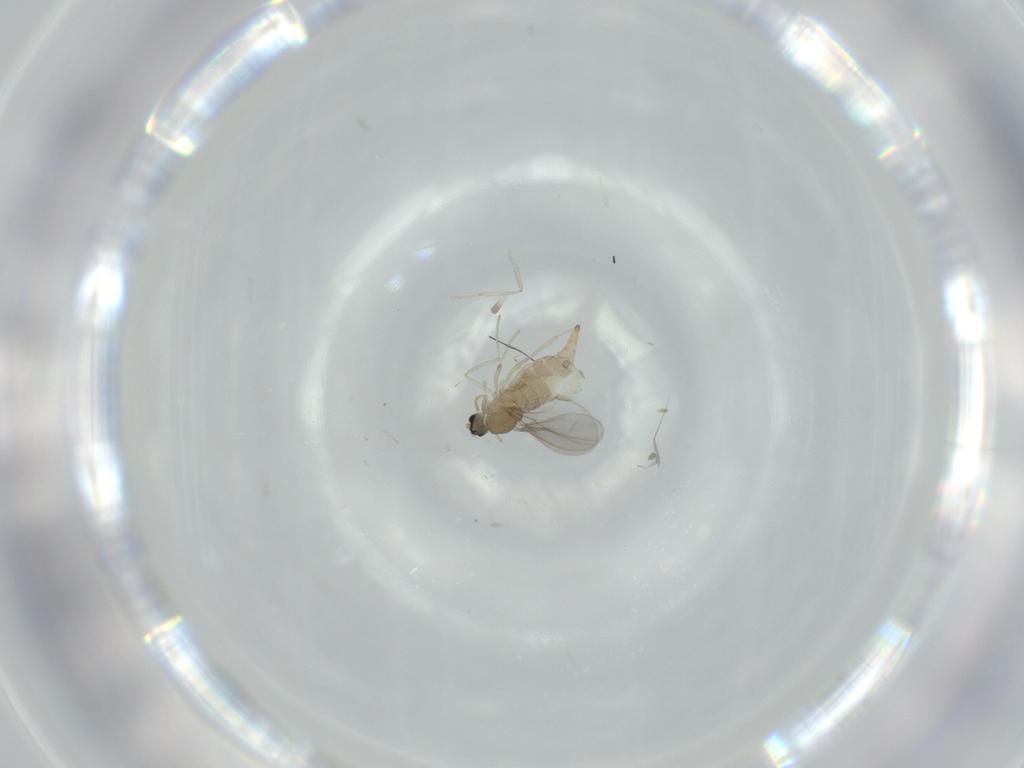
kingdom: Animalia
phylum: Arthropoda
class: Insecta
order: Diptera
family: Cecidomyiidae
